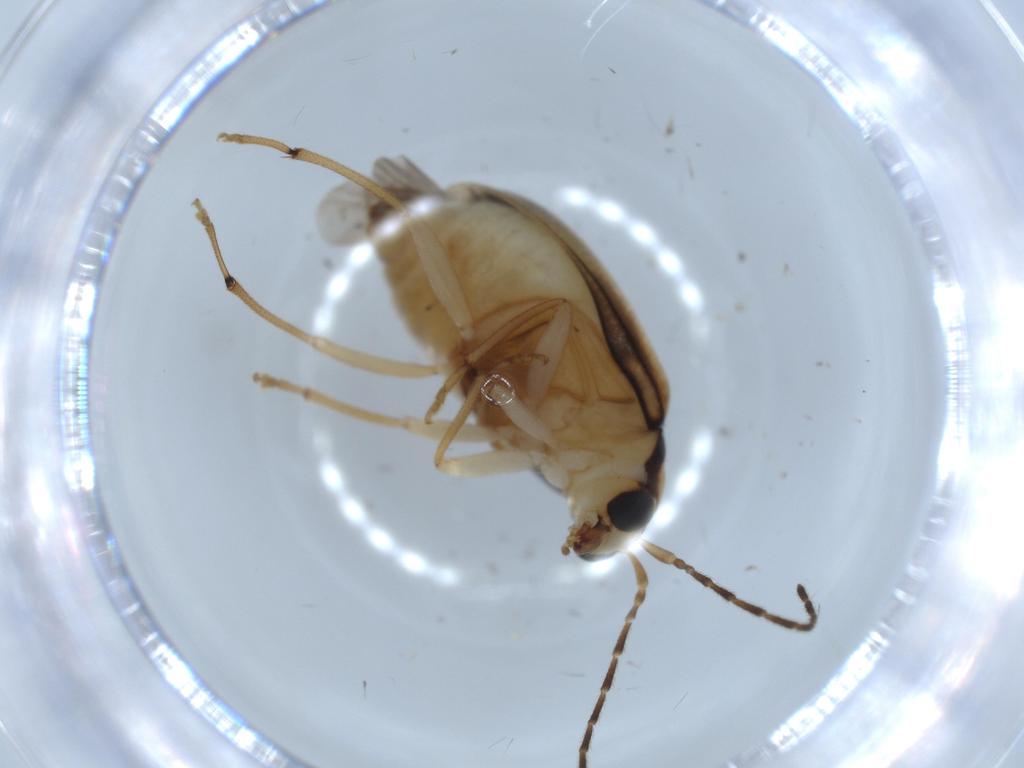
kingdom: Animalia
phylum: Arthropoda
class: Insecta
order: Coleoptera
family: Chrysomelidae
